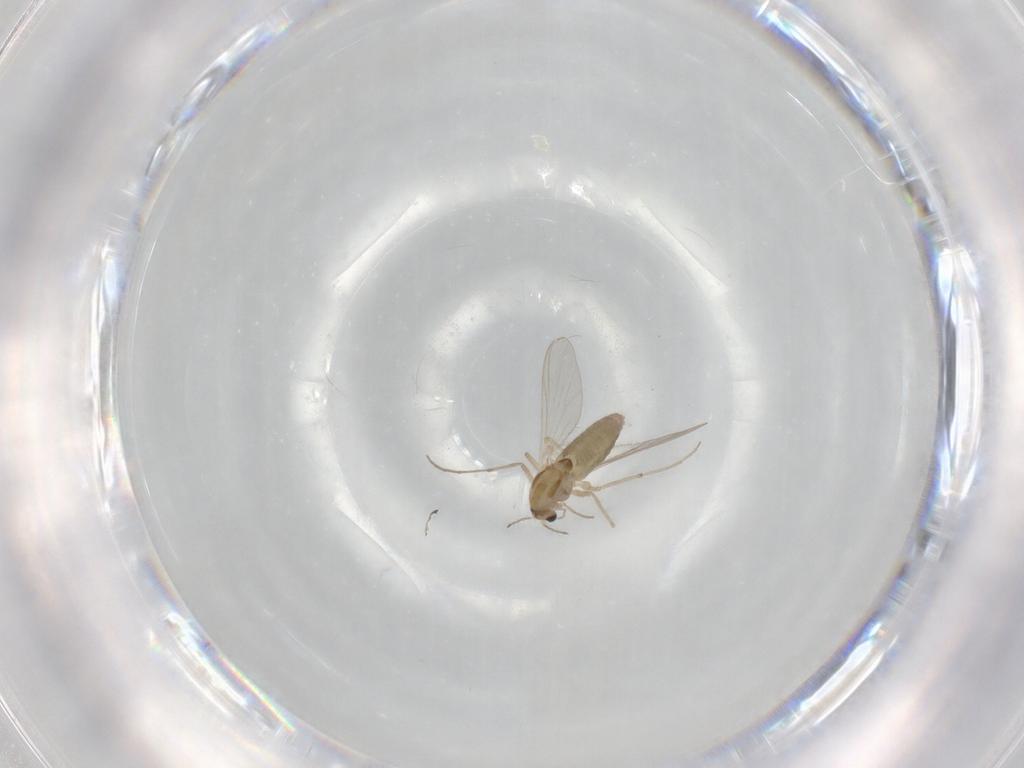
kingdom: Animalia
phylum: Arthropoda
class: Insecta
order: Diptera
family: Chironomidae
